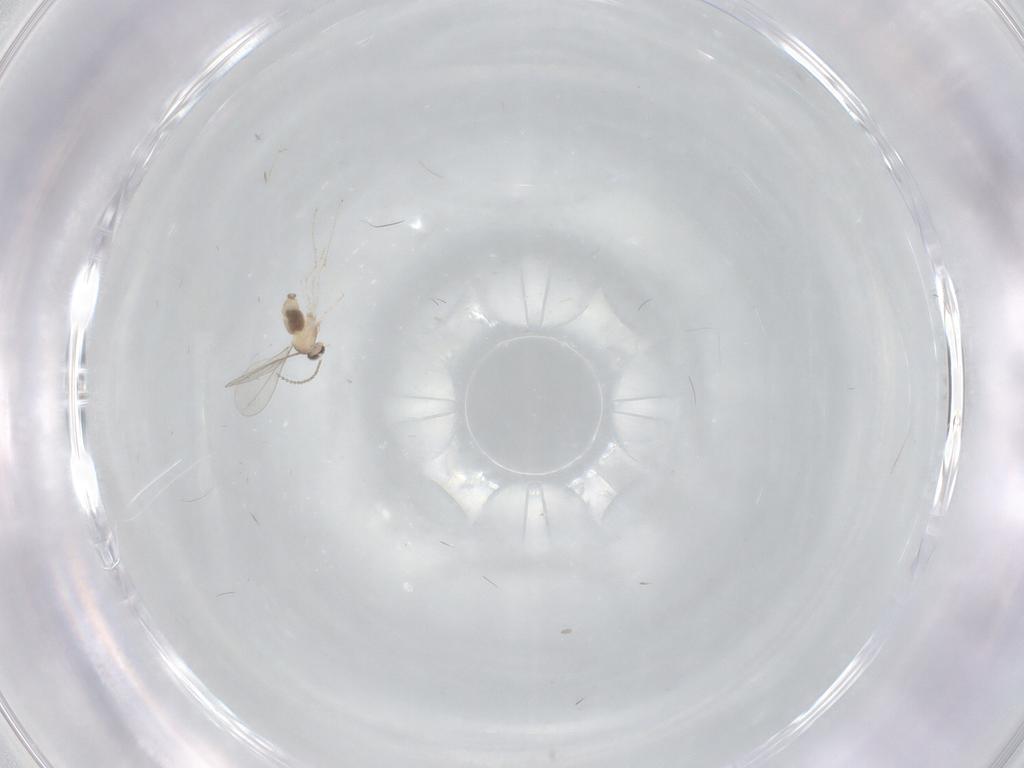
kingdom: Animalia
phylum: Arthropoda
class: Insecta
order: Diptera
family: Cecidomyiidae
